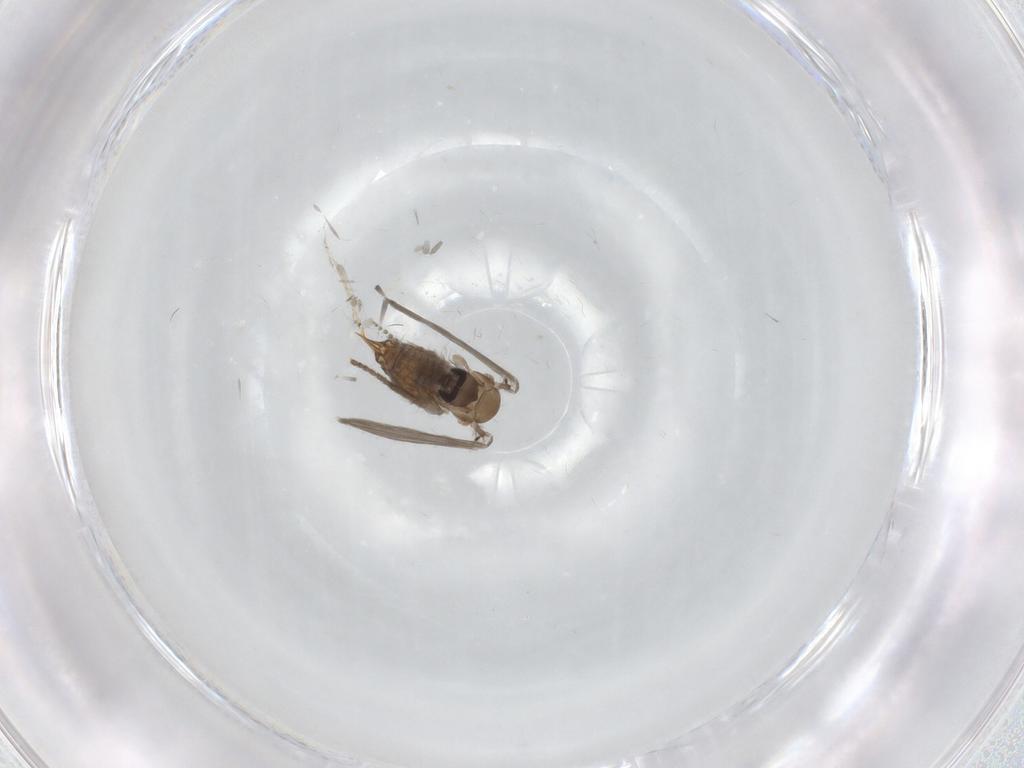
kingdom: Animalia
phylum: Arthropoda
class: Insecta
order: Diptera
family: Psychodidae
